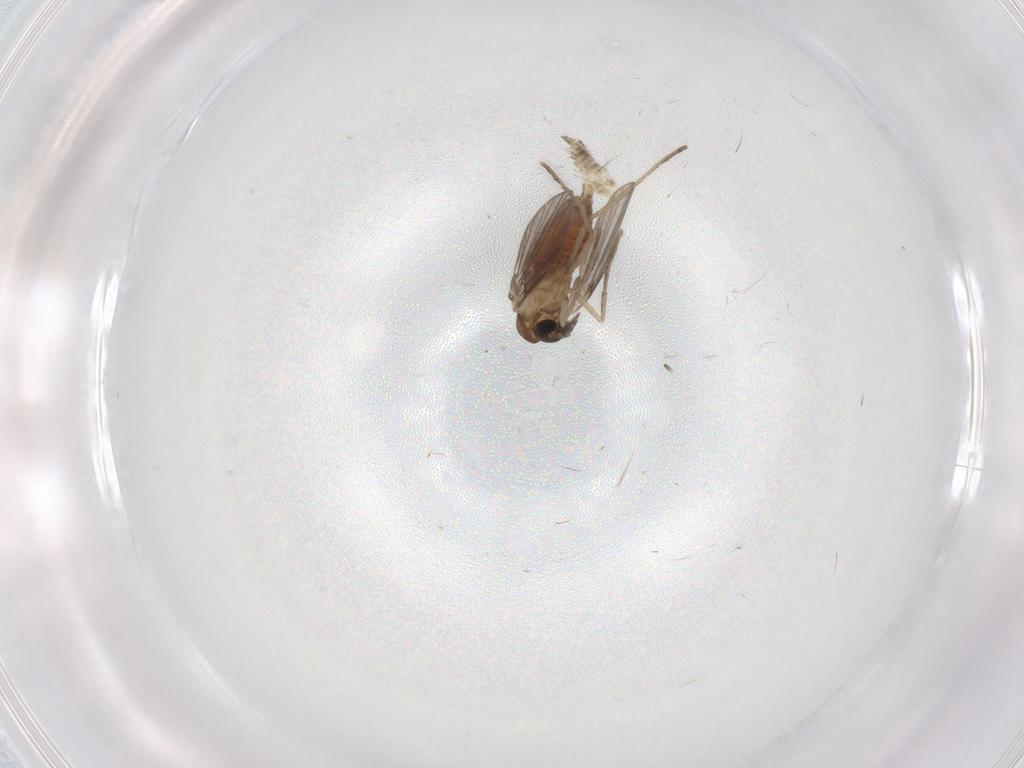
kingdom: Animalia
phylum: Arthropoda
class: Insecta
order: Diptera
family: Cecidomyiidae
